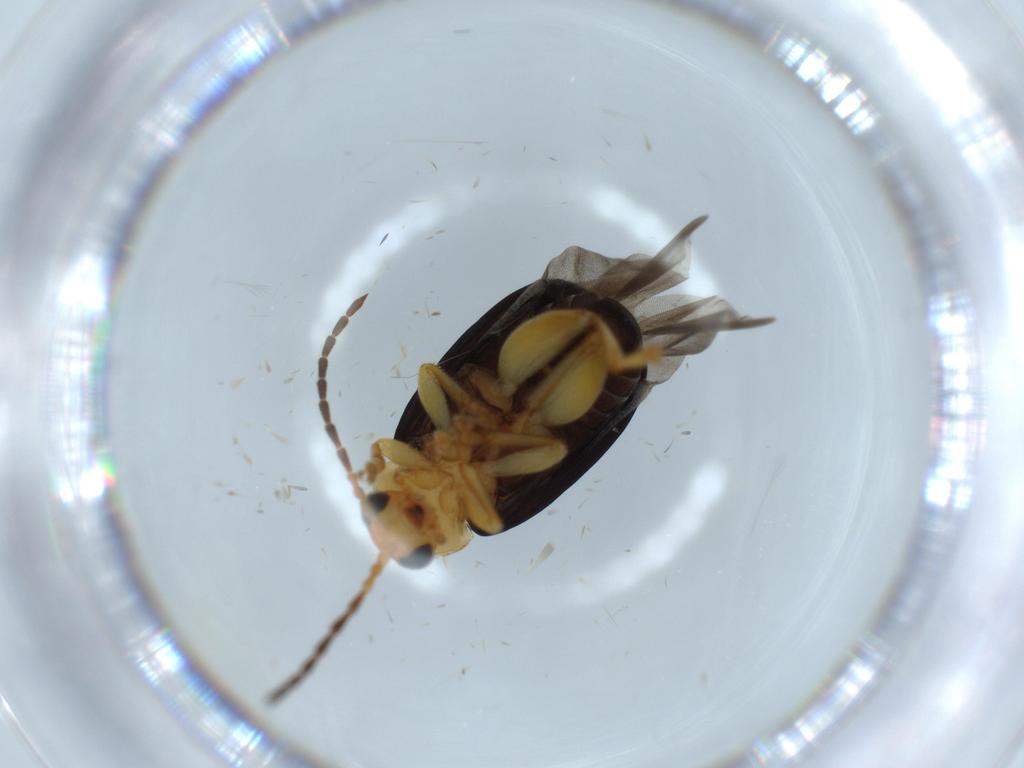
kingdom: Animalia
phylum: Arthropoda
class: Insecta
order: Coleoptera
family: Chrysomelidae
